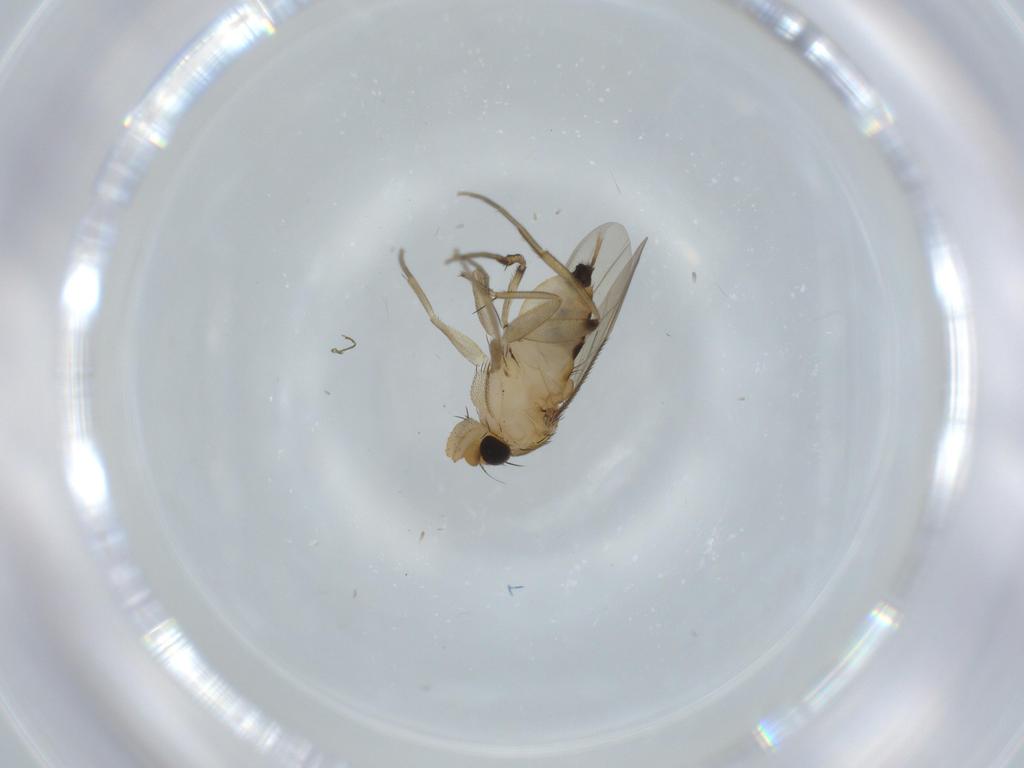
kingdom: Animalia
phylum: Arthropoda
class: Insecta
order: Diptera
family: Phoridae
